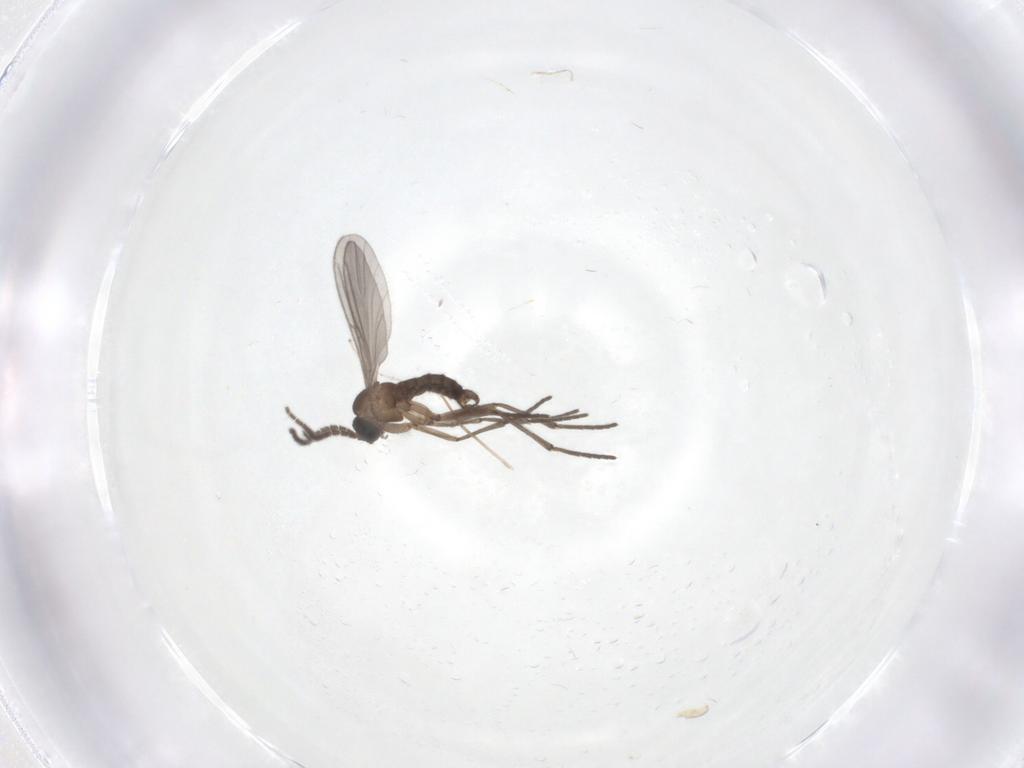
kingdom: Animalia
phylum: Arthropoda
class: Insecta
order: Diptera
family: Sciaridae
